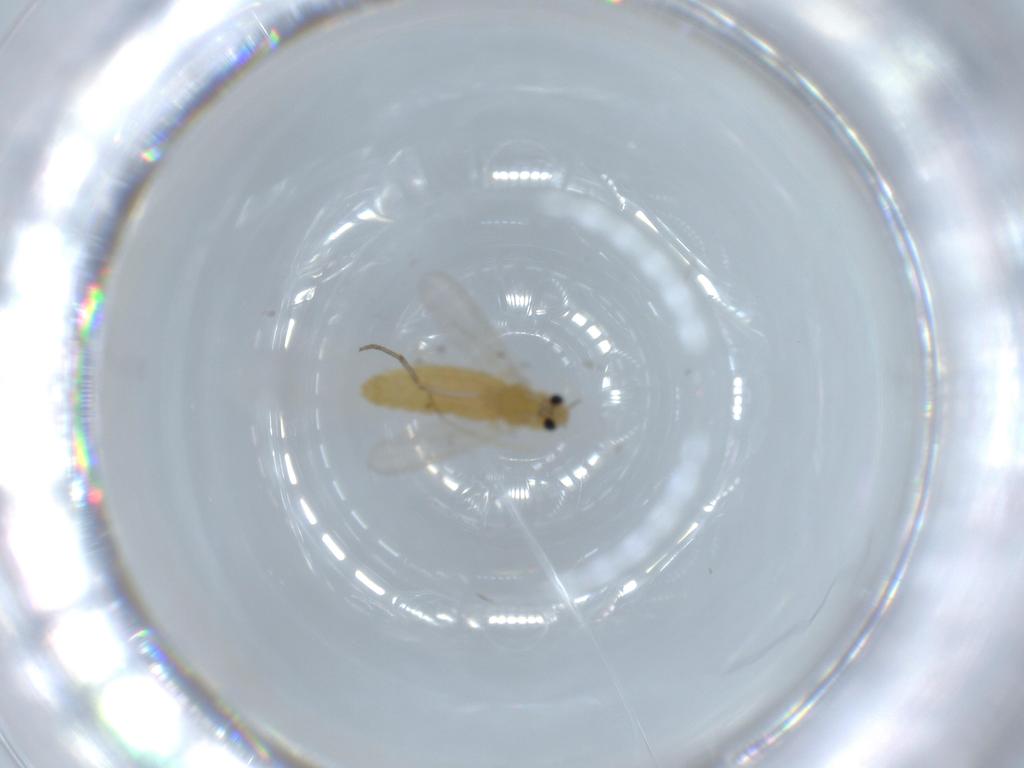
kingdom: Animalia
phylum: Arthropoda
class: Insecta
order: Diptera
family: Chironomidae
